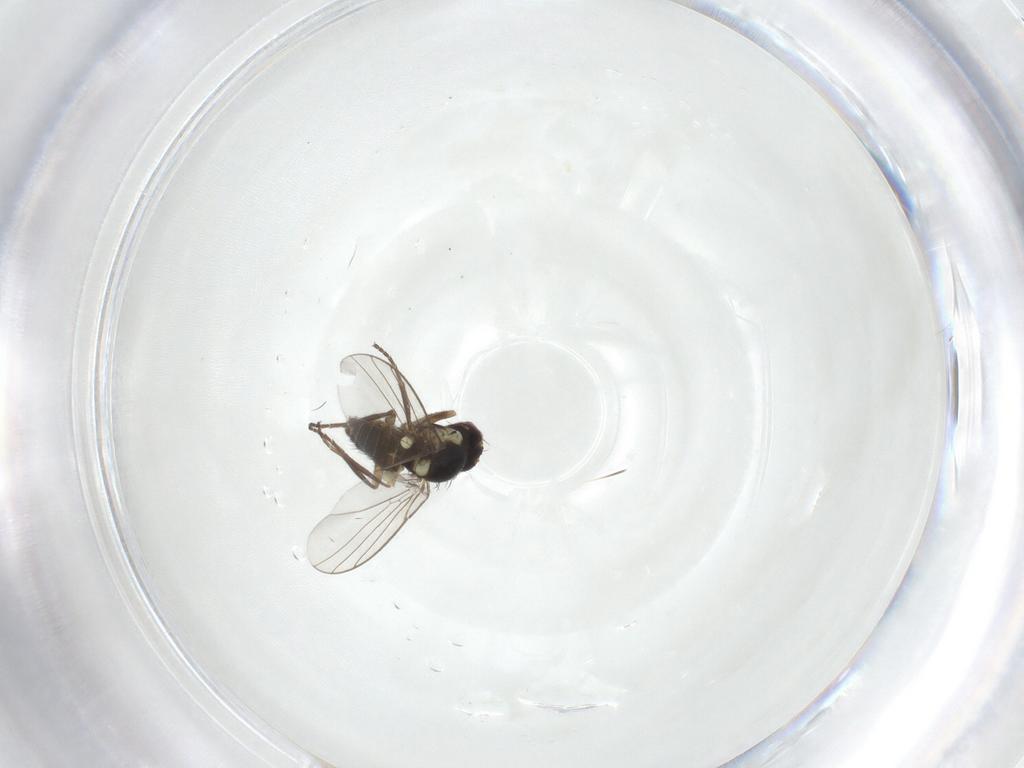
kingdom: Animalia
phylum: Arthropoda
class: Insecta
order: Diptera
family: Agromyzidae
